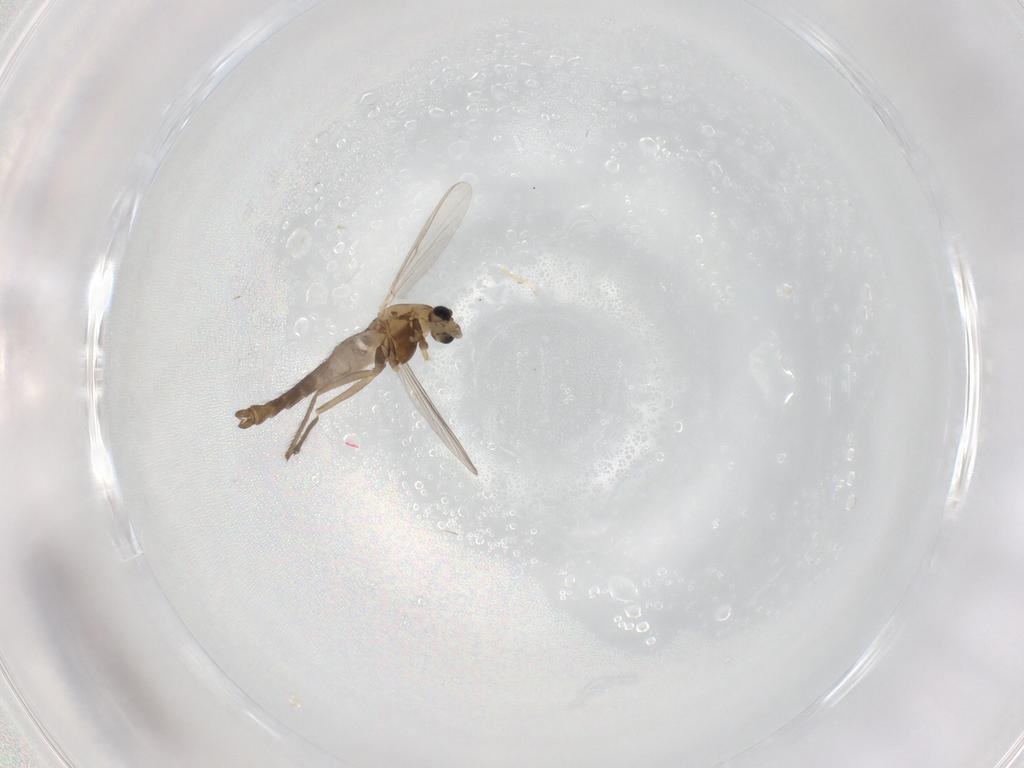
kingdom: Animalia
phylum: Arthropoda
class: Insecta
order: Diptera
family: Chironomidae
